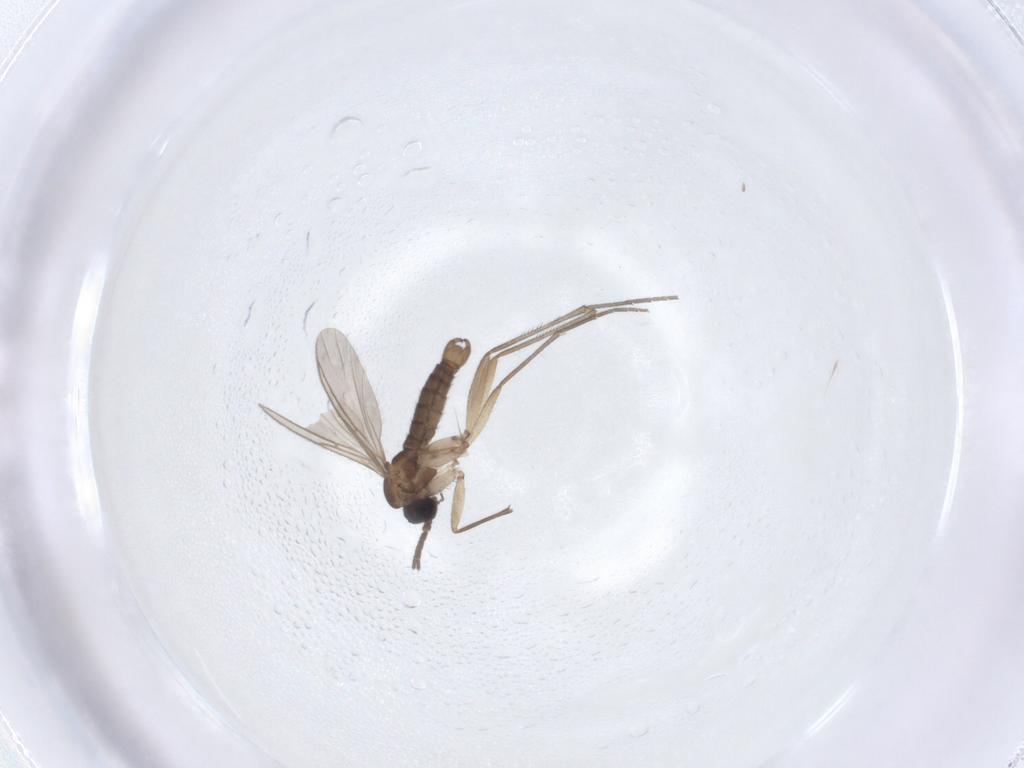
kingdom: Animalia
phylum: Arthropoda
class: Insecta
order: Diptera
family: Sciaridae
